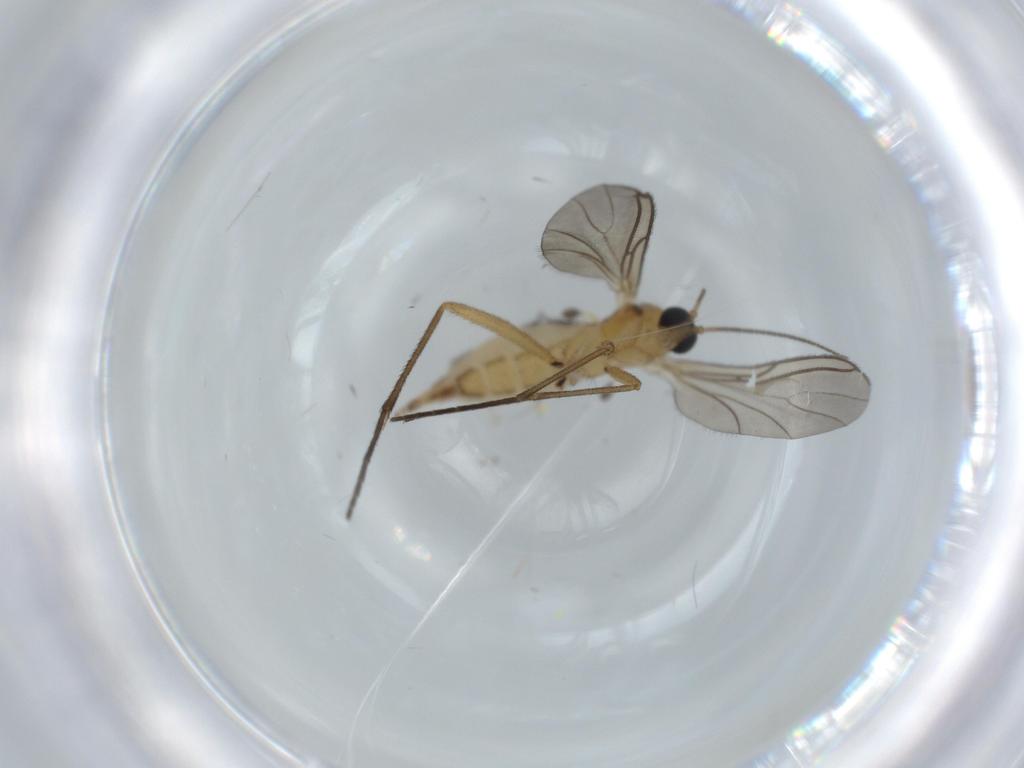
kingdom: Animalia
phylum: Arthropoda
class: Insecta
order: Diptera
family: Sciaridae
